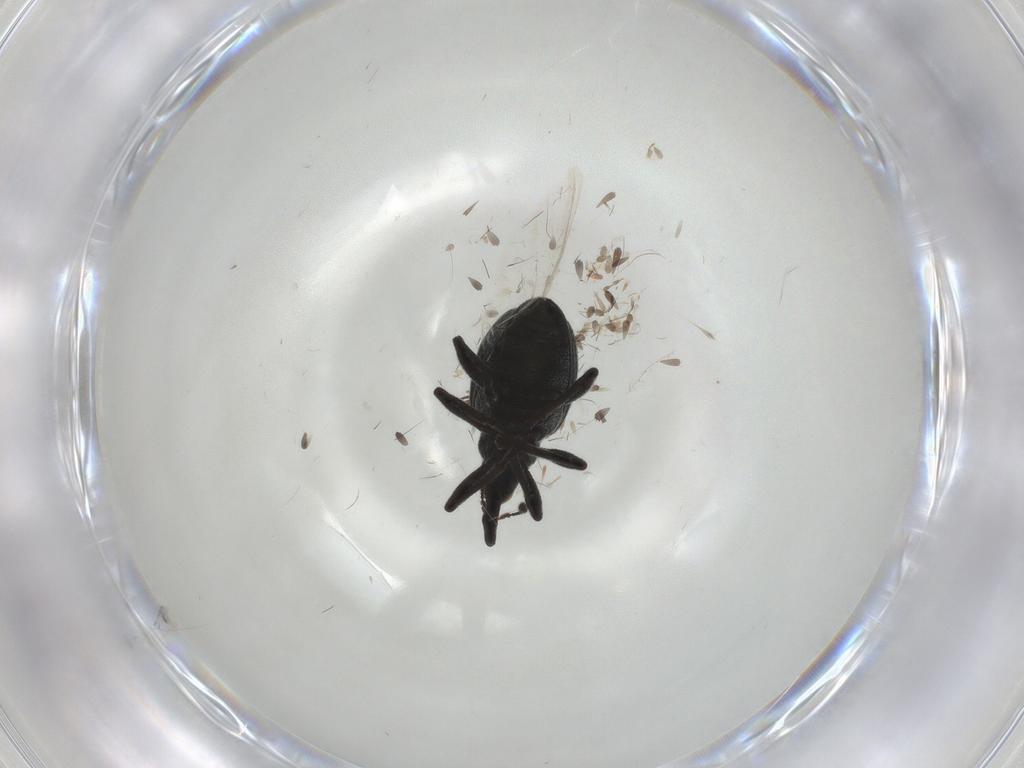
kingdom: Animalia
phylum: Arthropoda
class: Insecta
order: Coleoptera
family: Brentidae
